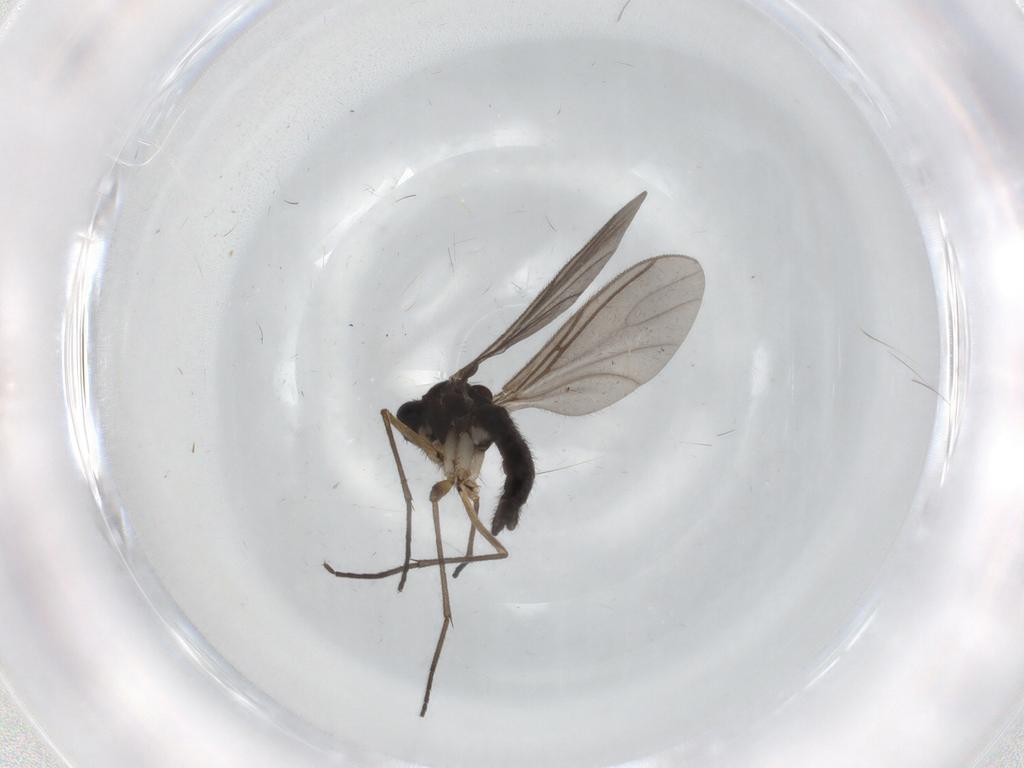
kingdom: Animalia
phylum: Arthropoda
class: Insecta
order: Diptera
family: Sciaridae
